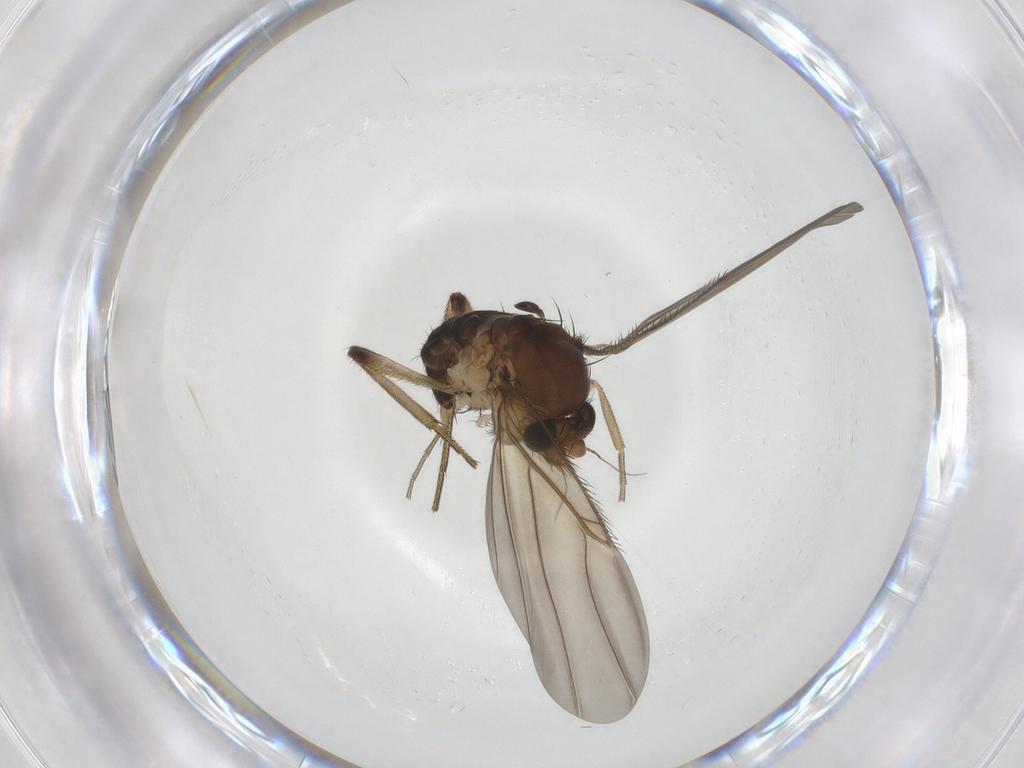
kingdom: Animalia
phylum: Arthropoda
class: Insecta
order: Diptera
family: Phoridae
